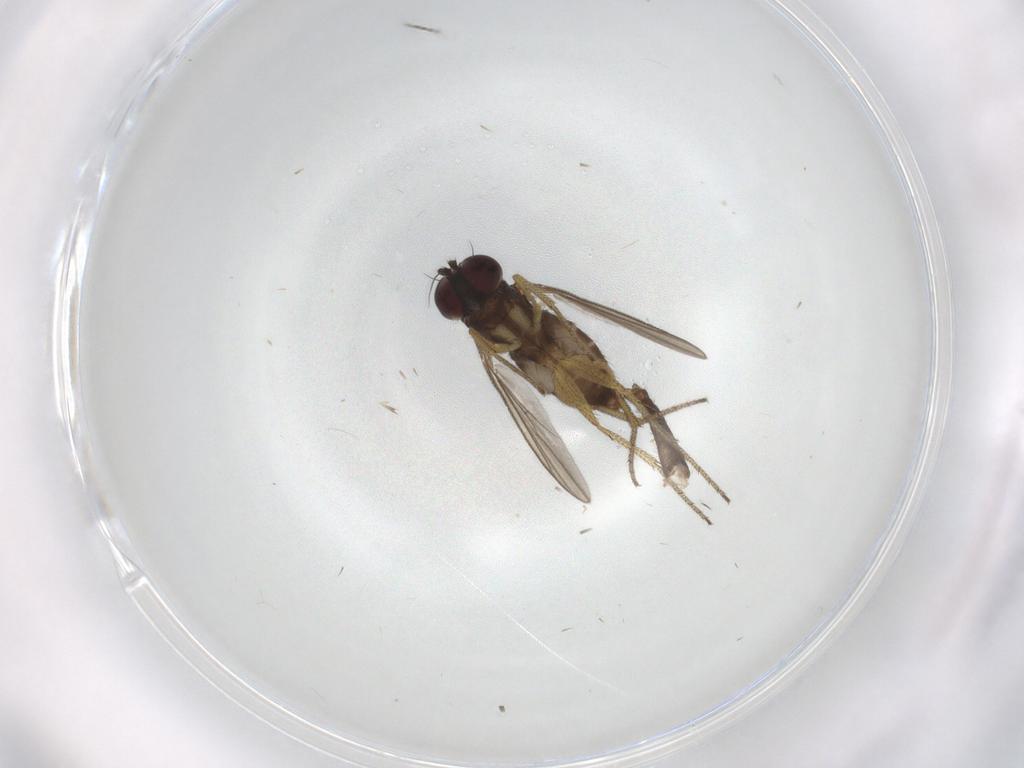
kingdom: Animalia
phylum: Arthropoda
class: Insecta
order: Diptera
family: Chironomidae
